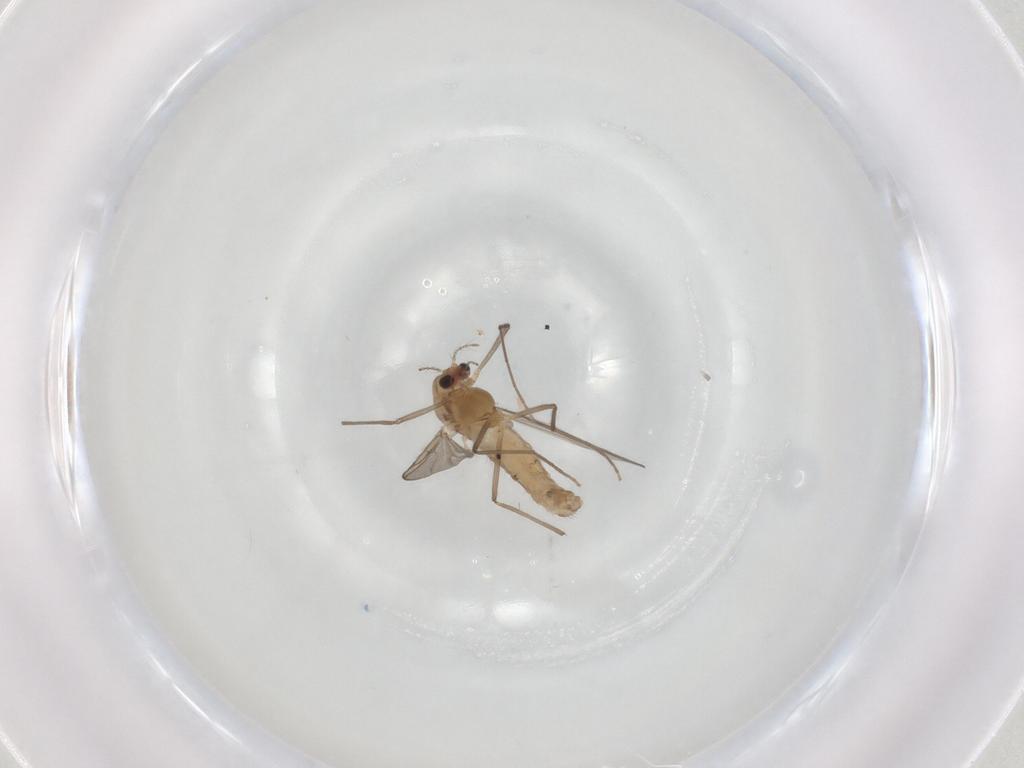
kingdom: Animalia
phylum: Arthropoda
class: Insecta
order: Diptera
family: Chironomidae
